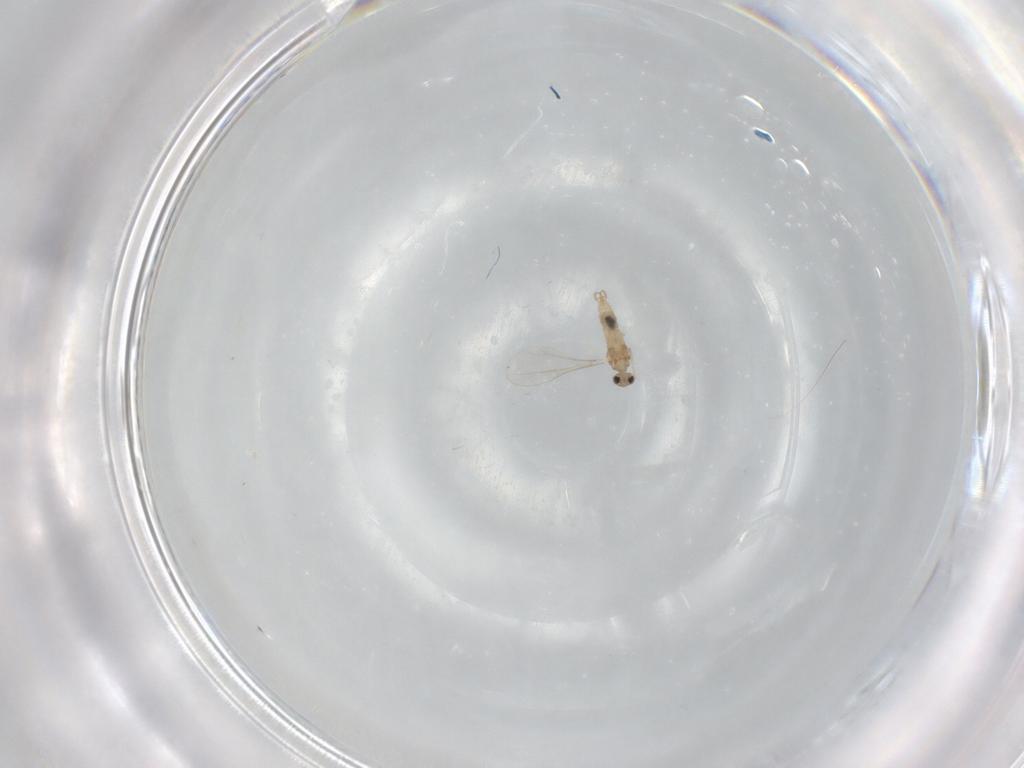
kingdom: Animalia
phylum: Arthropoda
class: Insecta
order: Diptera
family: Cecidomyiidae
